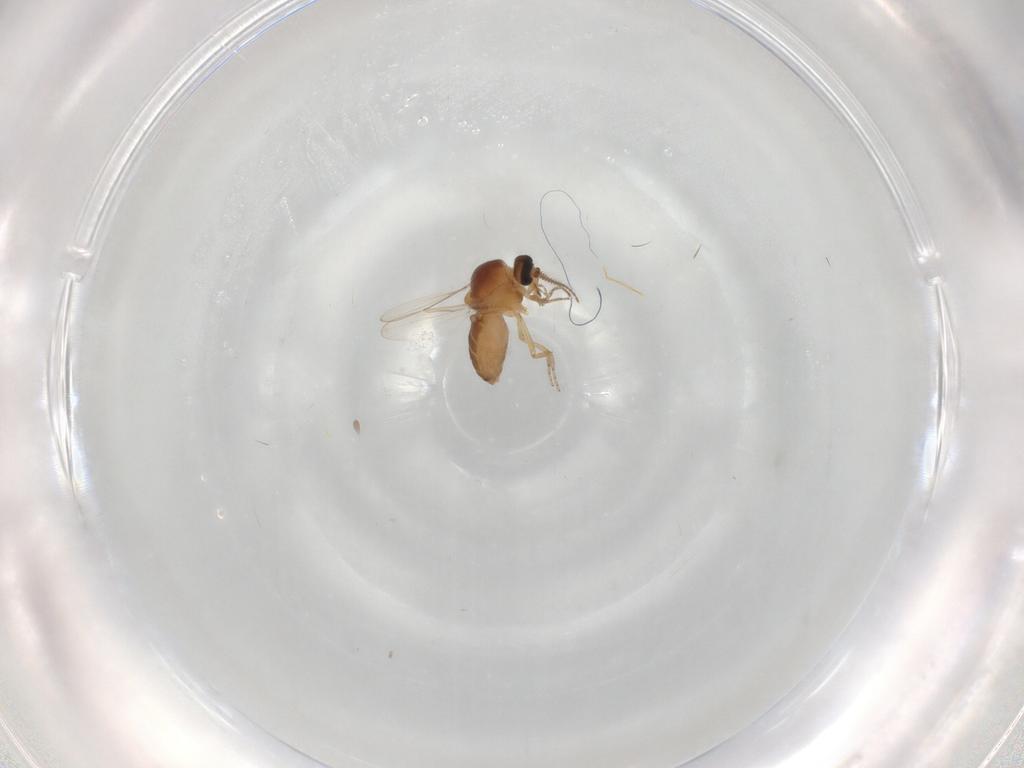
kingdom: Animalia
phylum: Arthropoda
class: Insecta
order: Diptera
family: Ceratopogonidae
